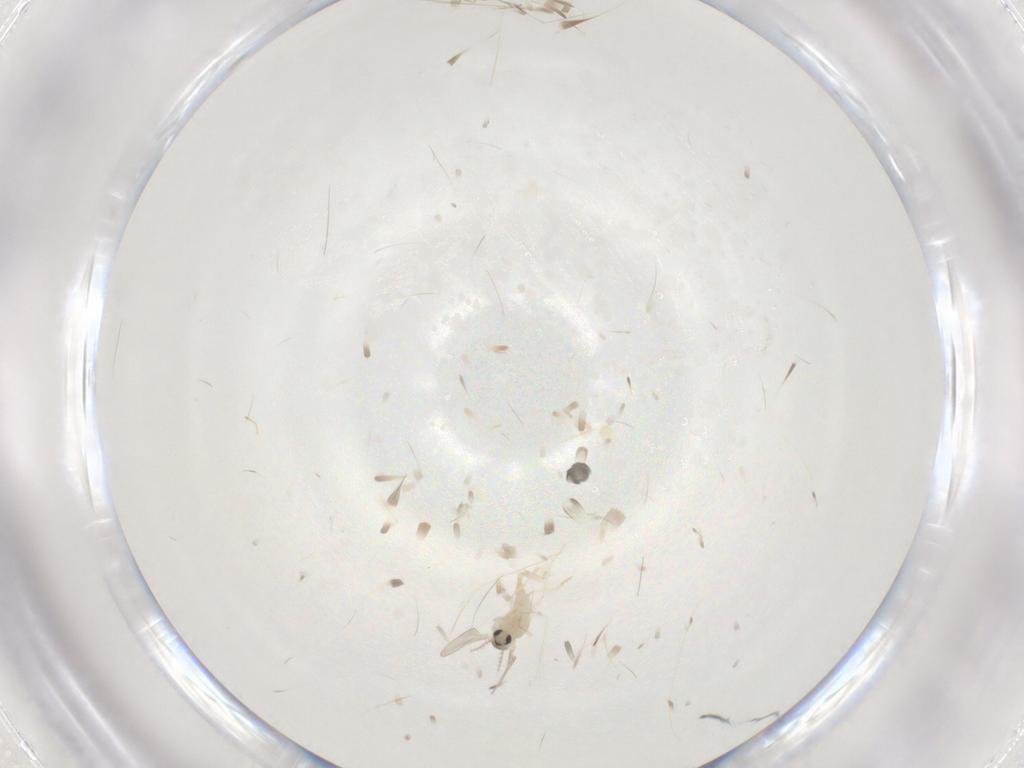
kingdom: Animalia
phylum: Arthropoda
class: Insecta
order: Diptera
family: Cecidomyiidae
